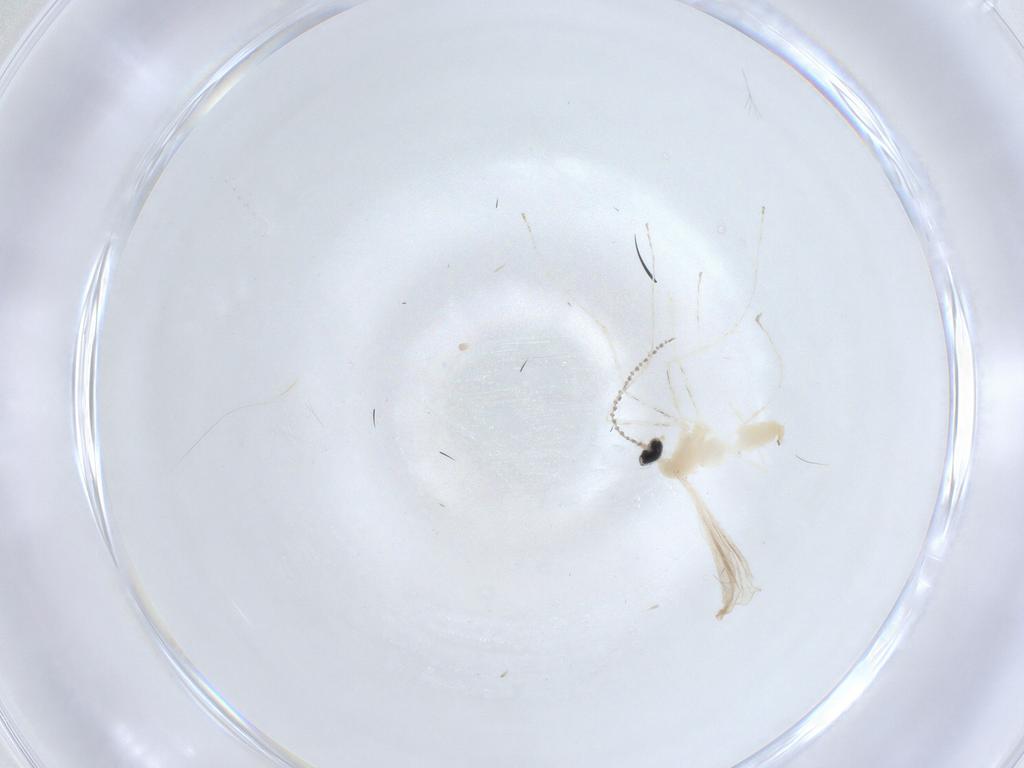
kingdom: Animalia
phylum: Arthropoda
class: Insecta
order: Diptera
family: Cecidomyiidae
